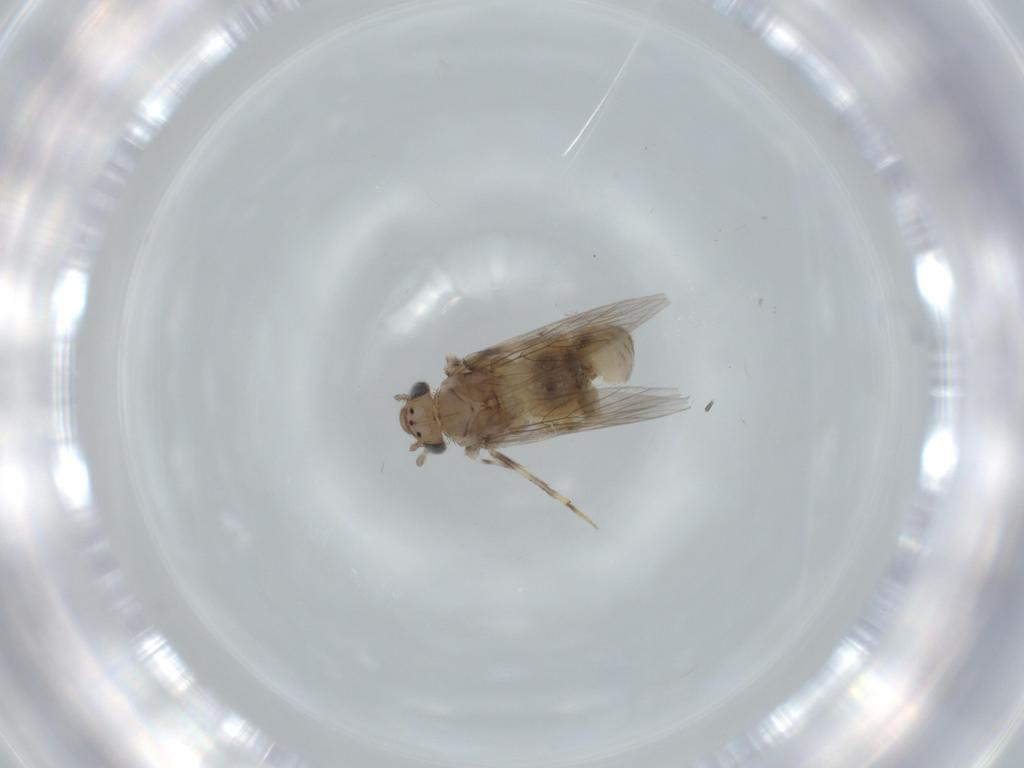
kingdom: Animalia
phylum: Arthropoda
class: Insecta
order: Psocodea
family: Lepidopsocidae
